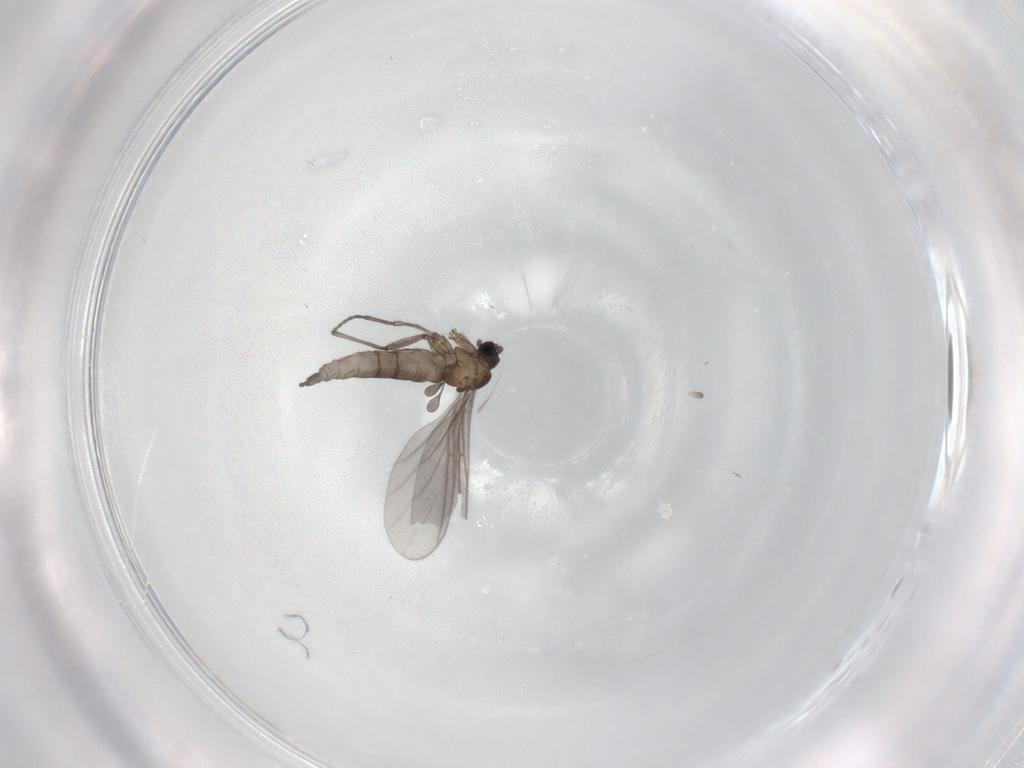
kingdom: Animalia
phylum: Arthropoda
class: Insecta
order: Diptera
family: Sciaridae
